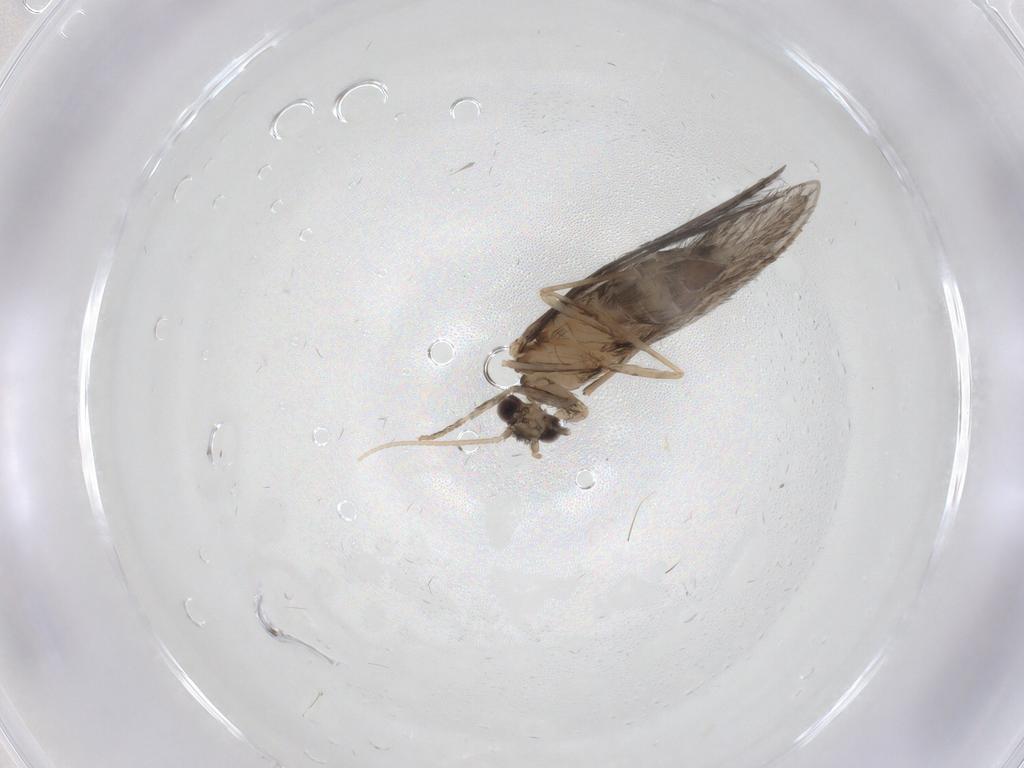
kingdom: Animalia
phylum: Arthropoda
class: Insecta
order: Trichoptera
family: Hydroptilidae
